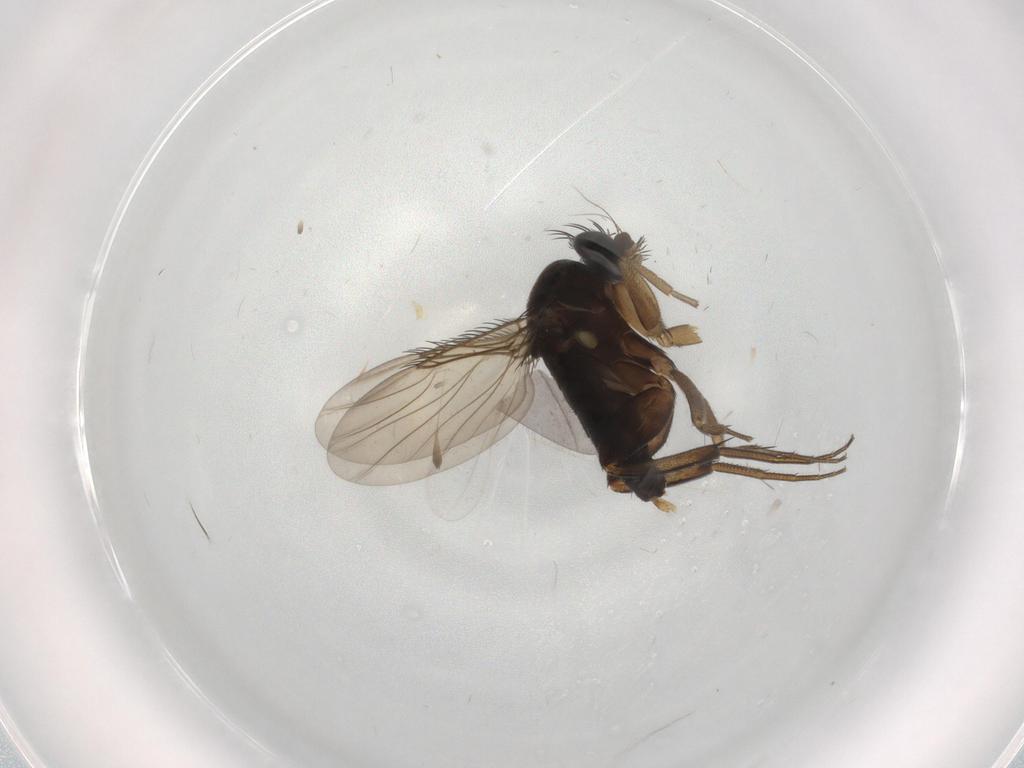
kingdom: Animalia
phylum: Arthropoda
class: Insecta
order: Diptera
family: Phoridae
